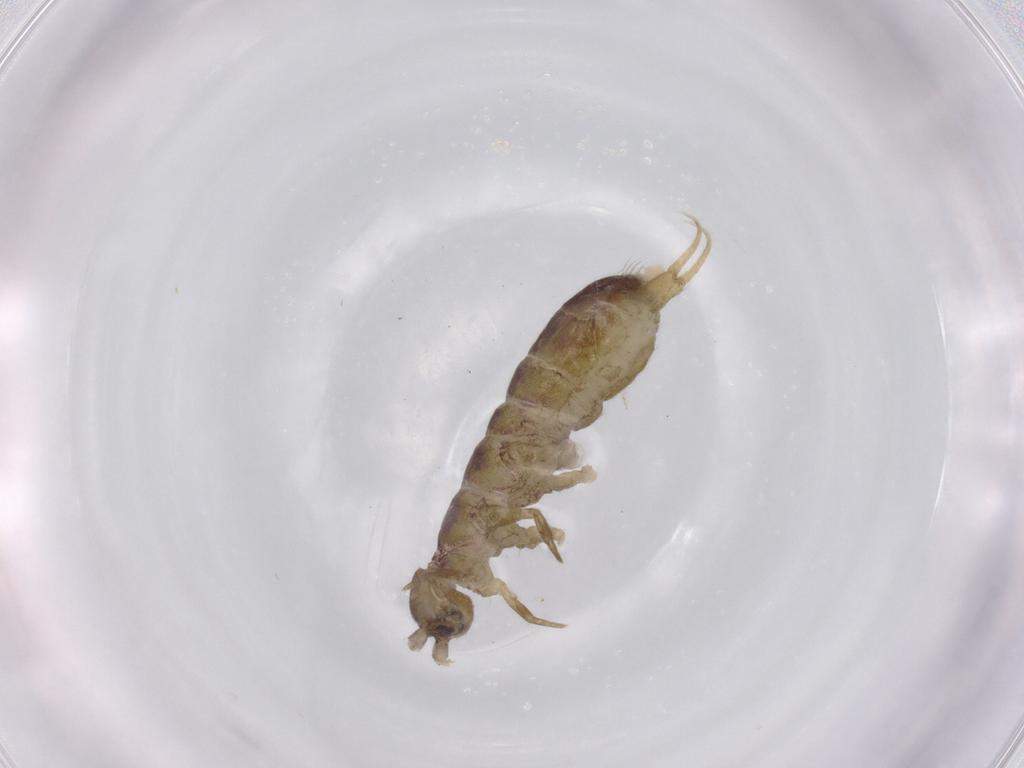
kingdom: Animalia
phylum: Arthropoda
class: Collembola
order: Entomobryomorpha
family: Isotomidae
